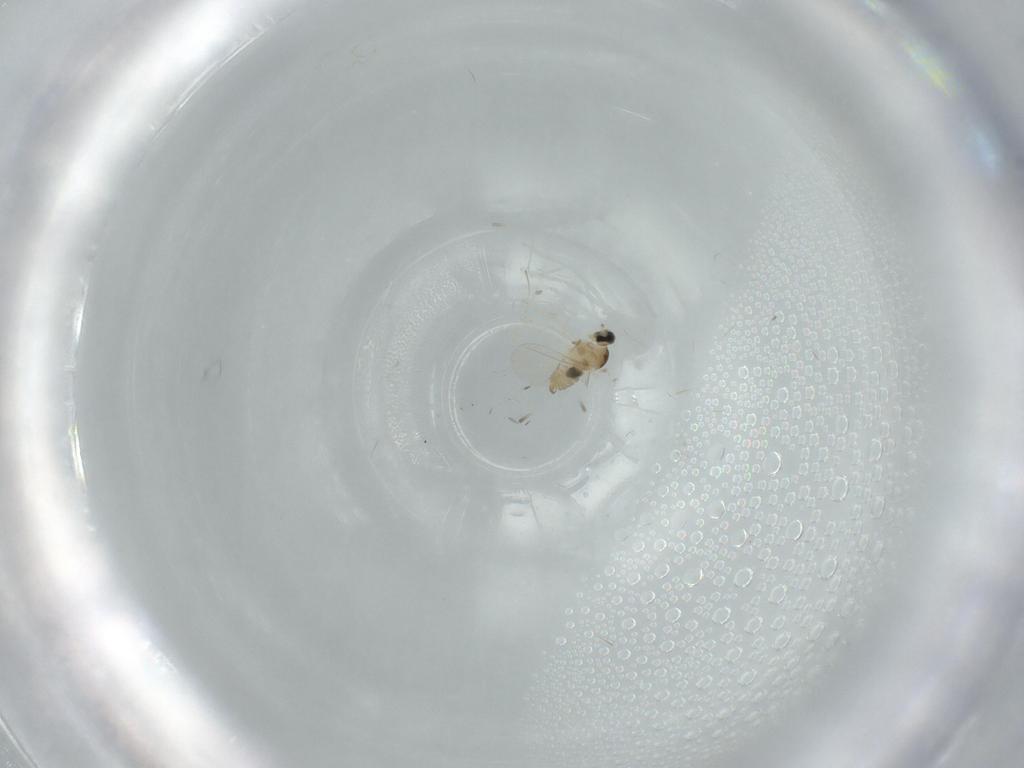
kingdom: Animalia
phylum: Arthropoda
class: Insecta
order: Diptera
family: Cecidomyiidae
